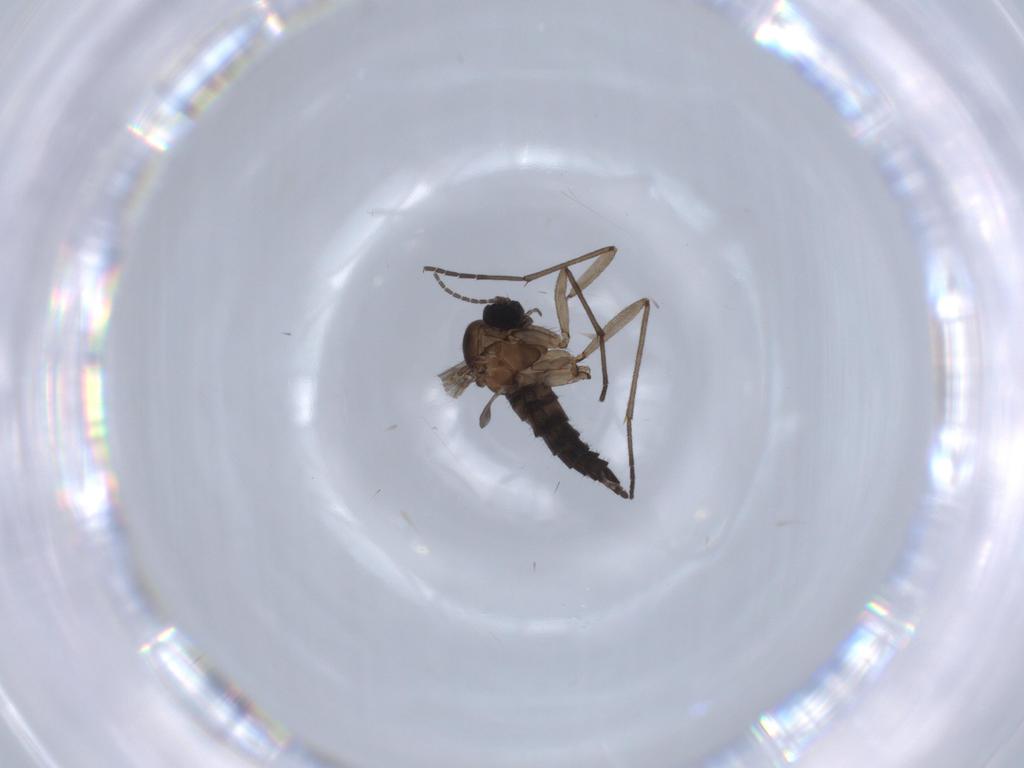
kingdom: Animalia
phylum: Arthropoda
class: Insecta
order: Diptera
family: Sciaridae
